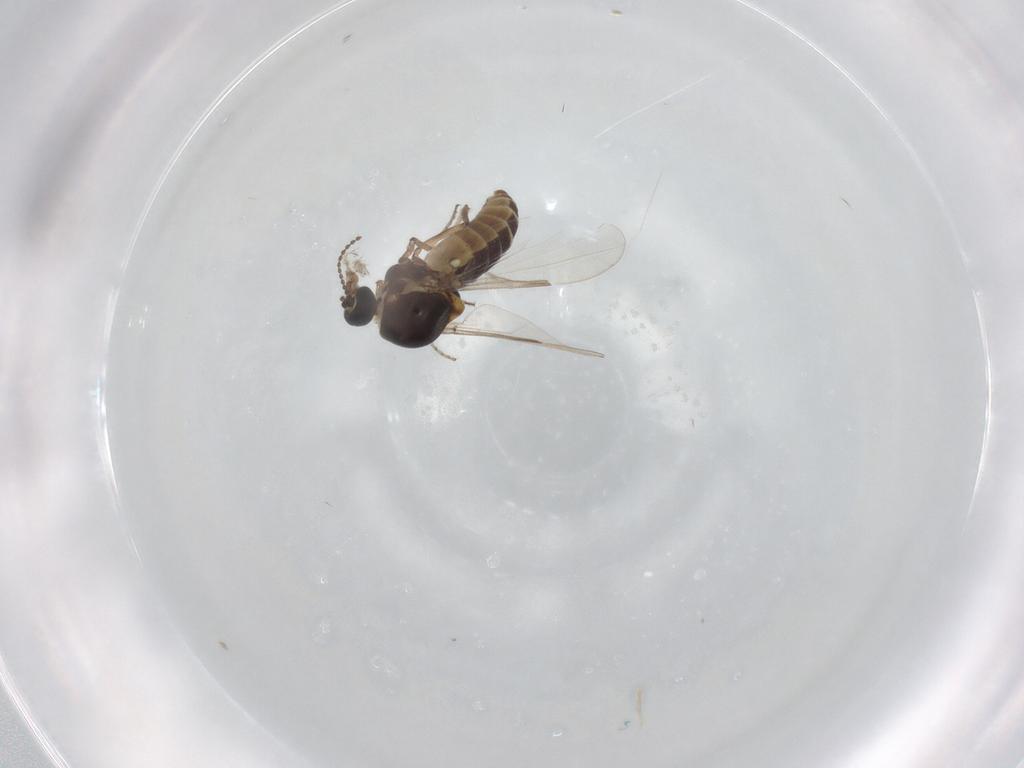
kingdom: Animalia
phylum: Arthropoda
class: Insecta
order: Diptera
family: Ceratopogonidae
